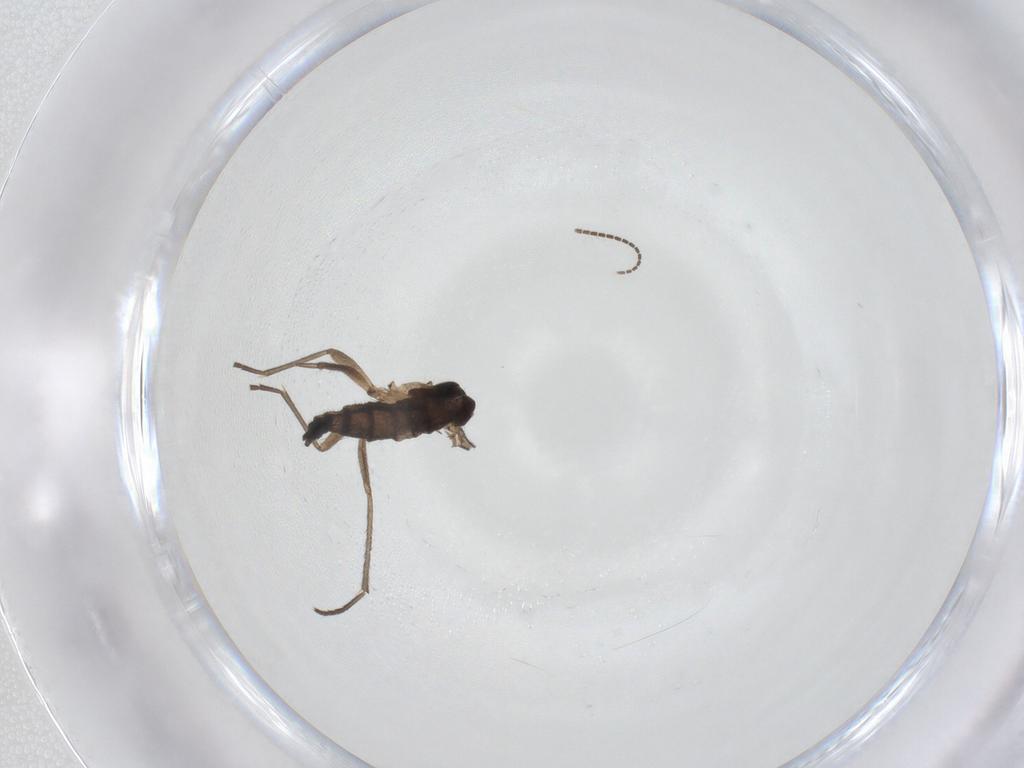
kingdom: Animalia
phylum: Arthropoda
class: Insecta
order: Diptera
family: Sciaridae
